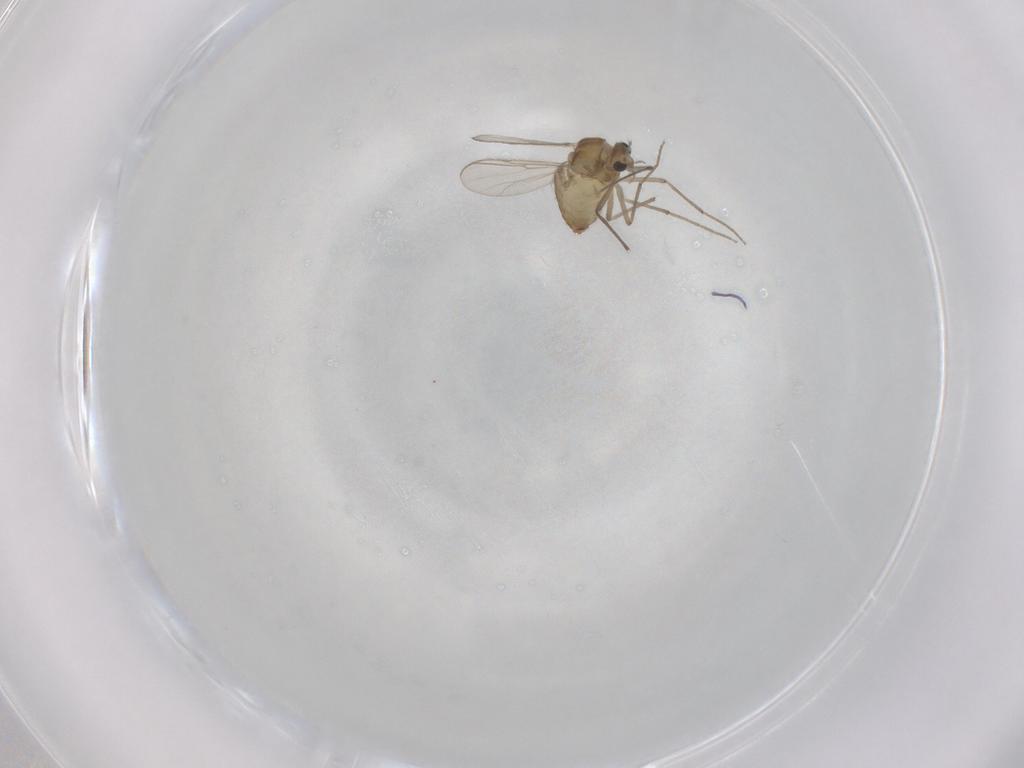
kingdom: Animalia
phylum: Arthropoda
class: Insecta
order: Diptera
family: Chironomidae
